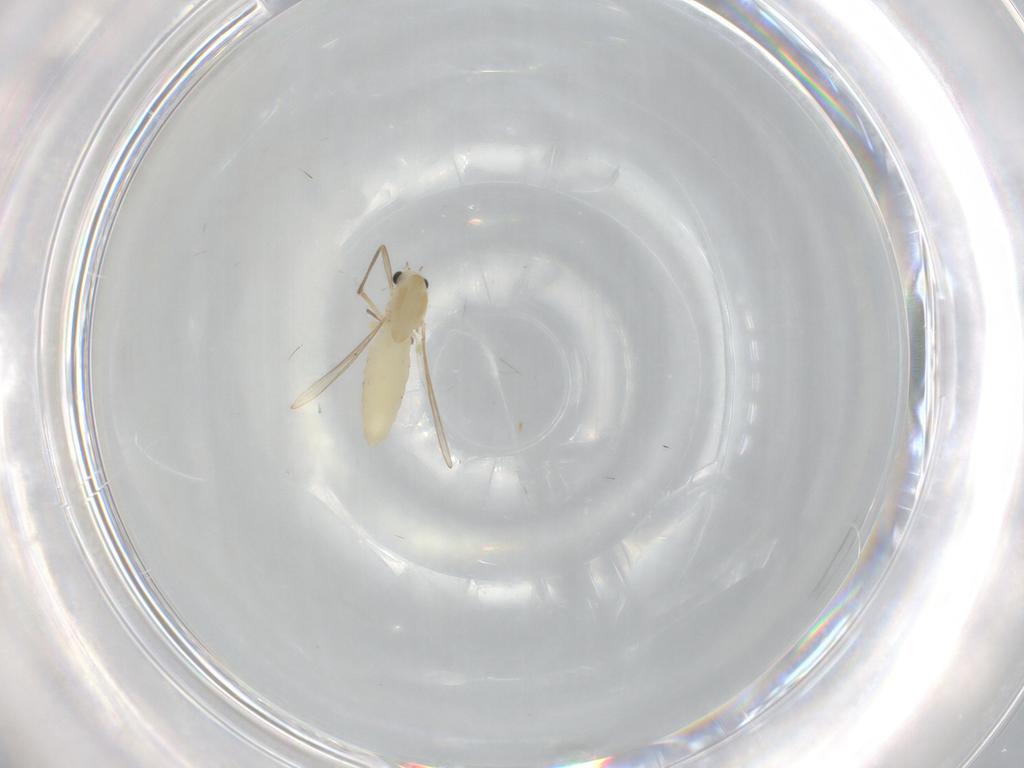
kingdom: Animalia
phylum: Arthropoda
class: Insecta
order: Diptera
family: Chironomidae
